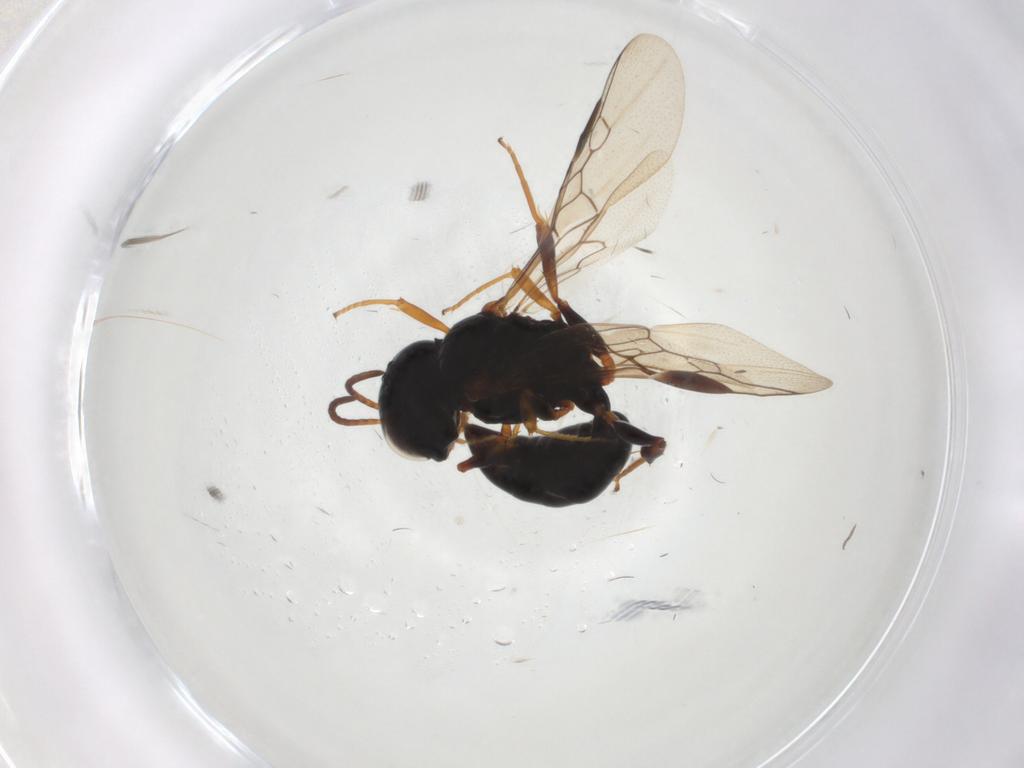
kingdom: Animalia
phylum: Arthropoda
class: Insecta
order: Hymenoptera
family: Pemphredonidae
